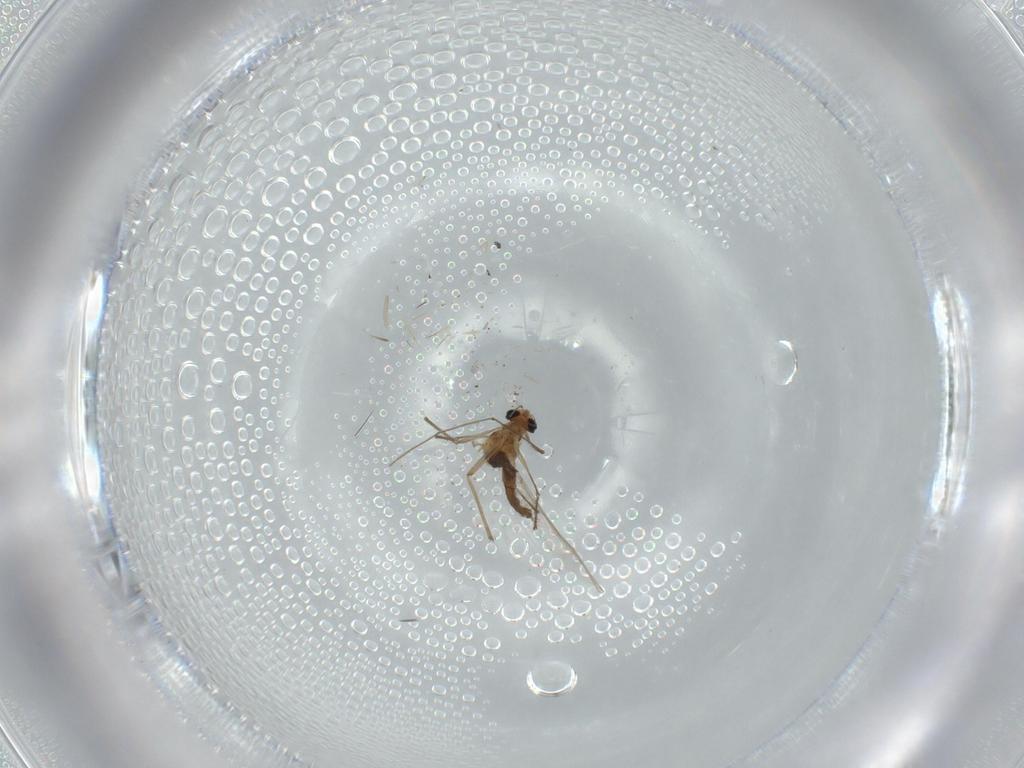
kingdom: Animalia
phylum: Arthropoda
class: Insecta
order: Diptera
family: Chironomidae
